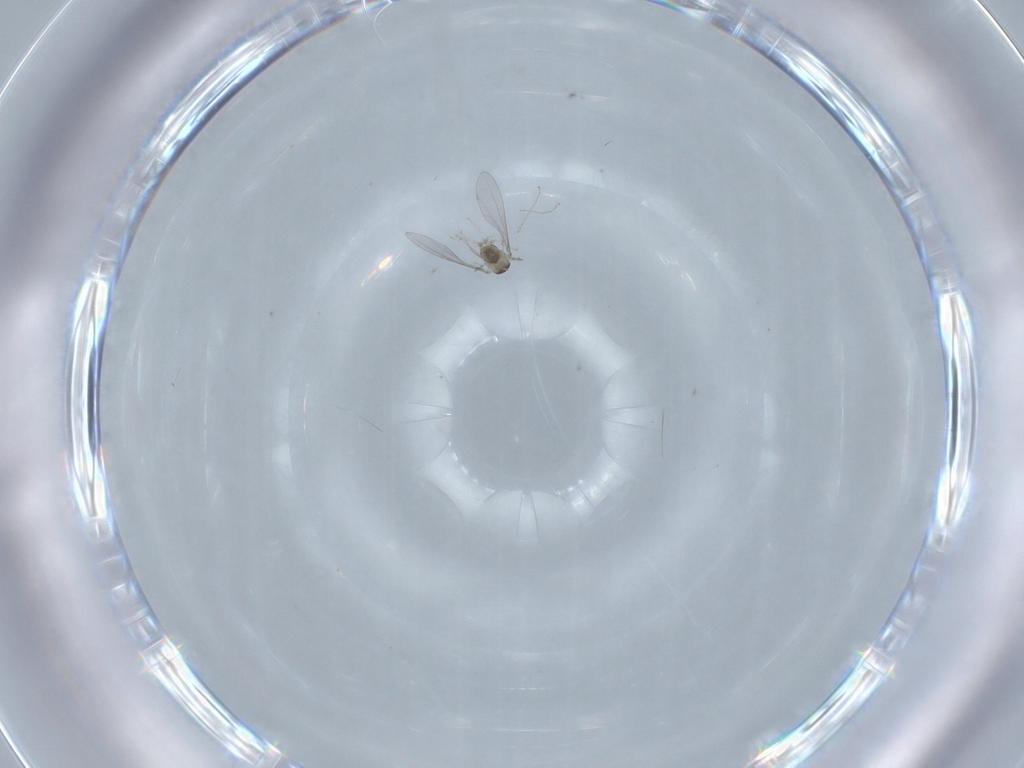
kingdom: Animalia
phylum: Arthropoda
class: Insecta
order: Diptera
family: Cecidomyiidae
